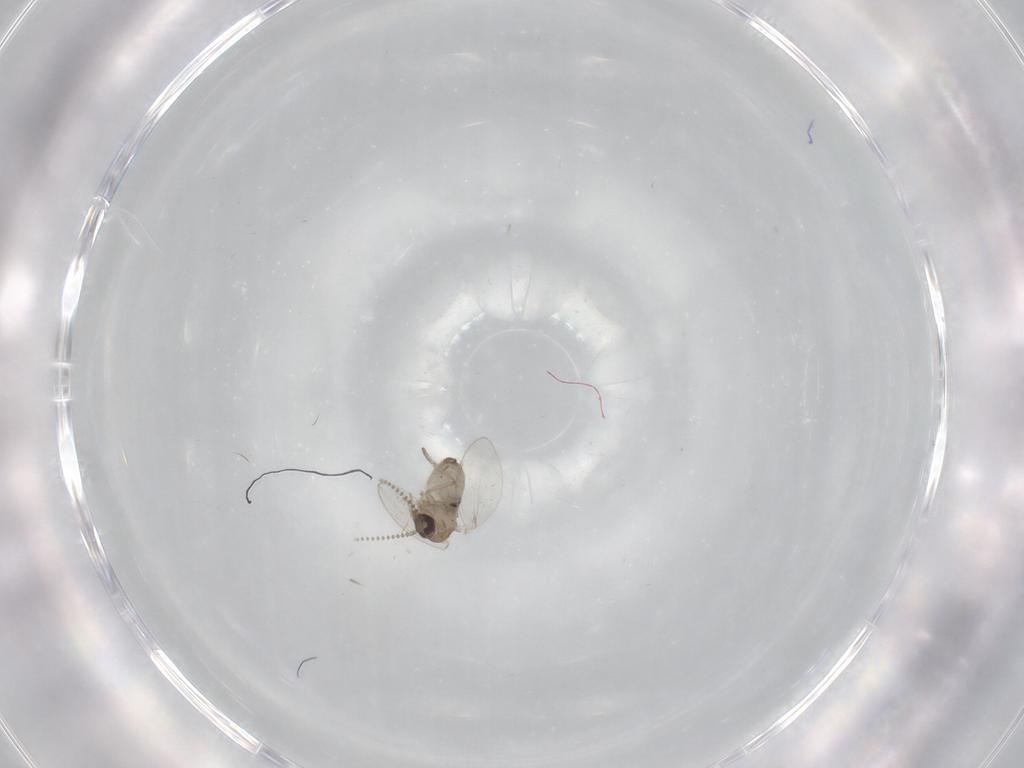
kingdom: Animalia
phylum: Arthropoda
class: Insecta
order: Diptera
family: Psychodidae
